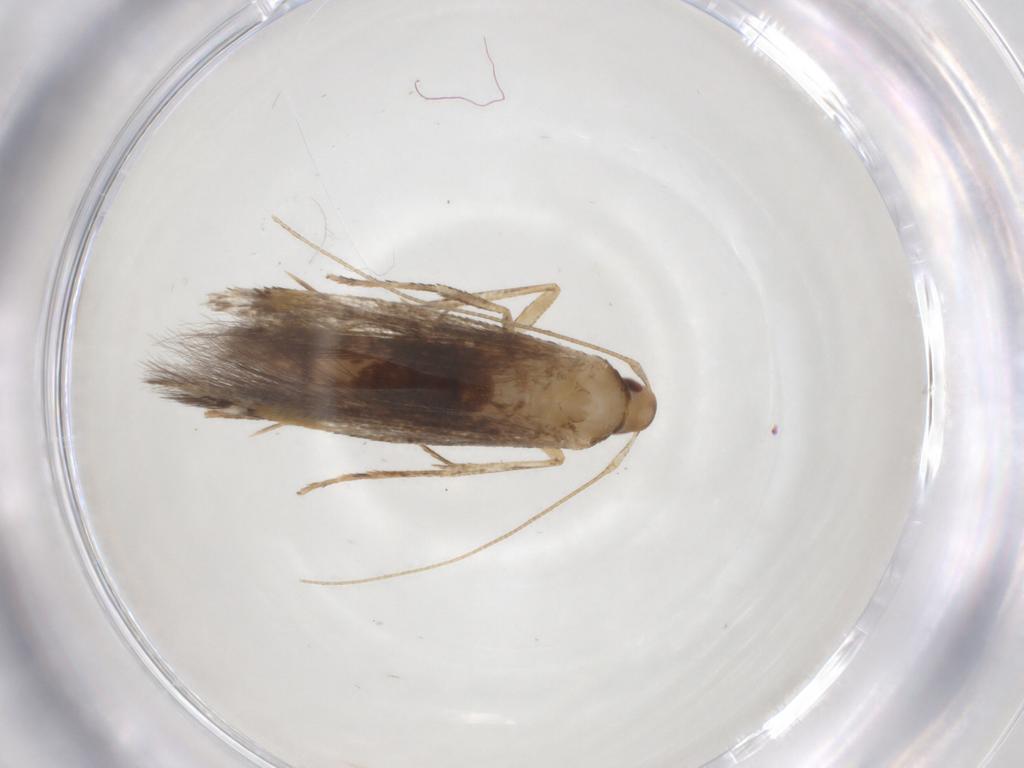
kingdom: Animalia
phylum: Arthropoda
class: Insecta
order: Lepidoptera
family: Cosmopterigidae
